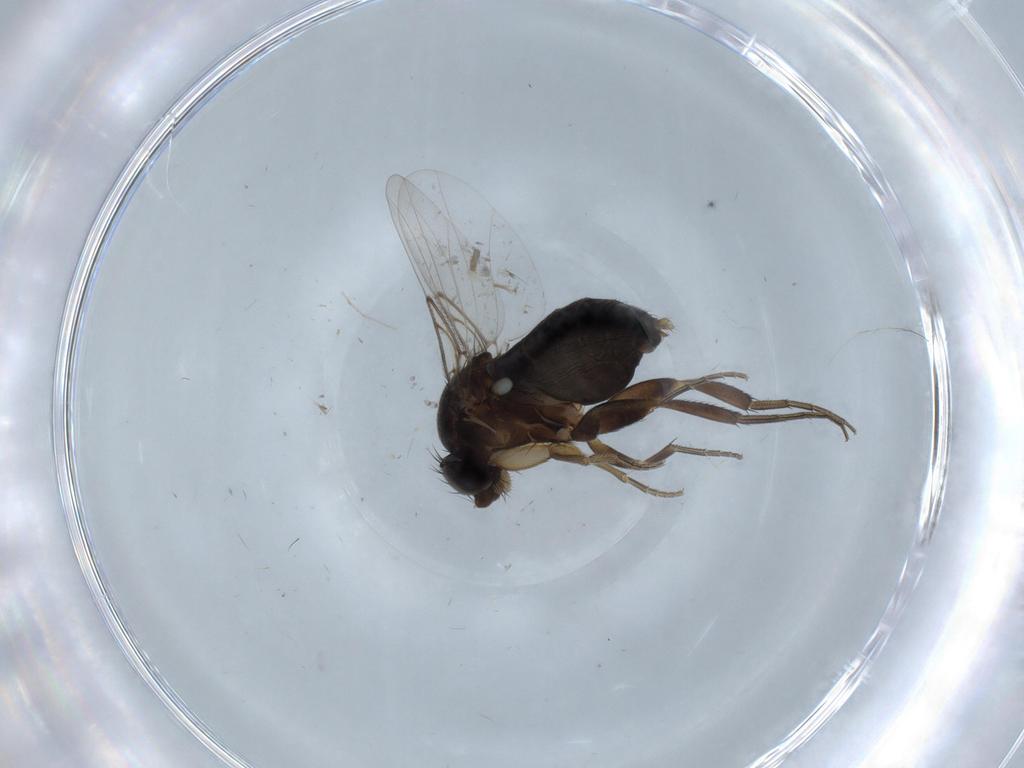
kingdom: Animalia
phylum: Arthropoda
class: Insecta
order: Diptera
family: Phoridae
